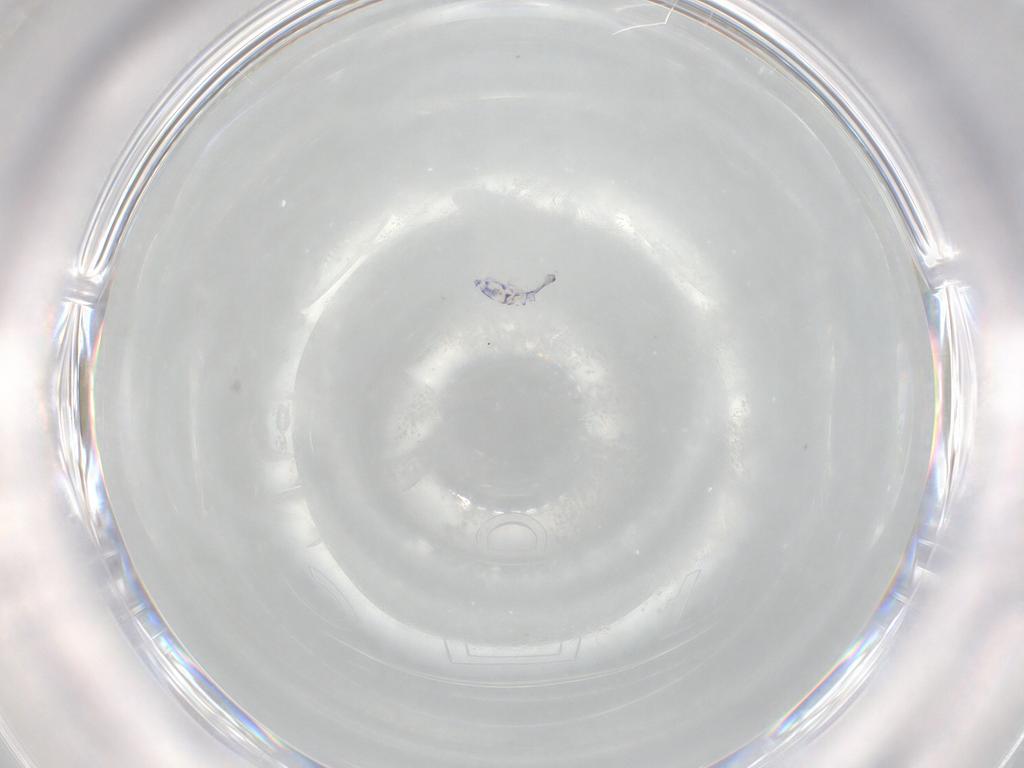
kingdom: Animalia
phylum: Arthropoda
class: Collembola
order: Entomobryomorpha
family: Entomobryidae
